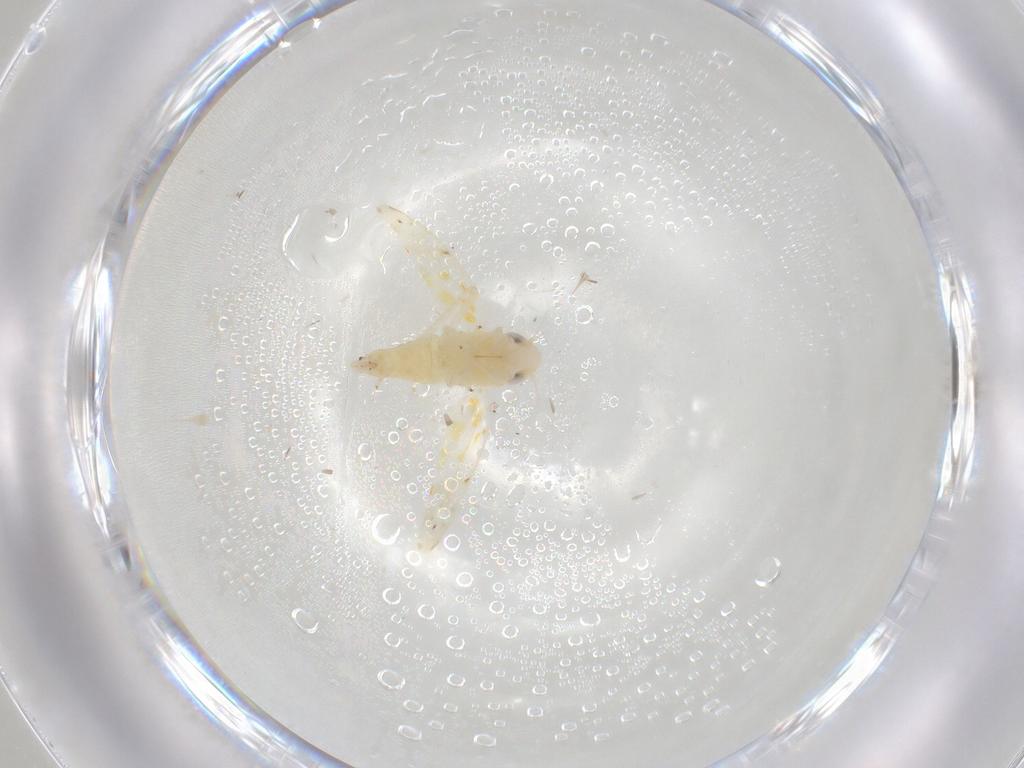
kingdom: Animalia
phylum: Arthropoda
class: Insecta
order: Hemiptera
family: Cicadellidae
